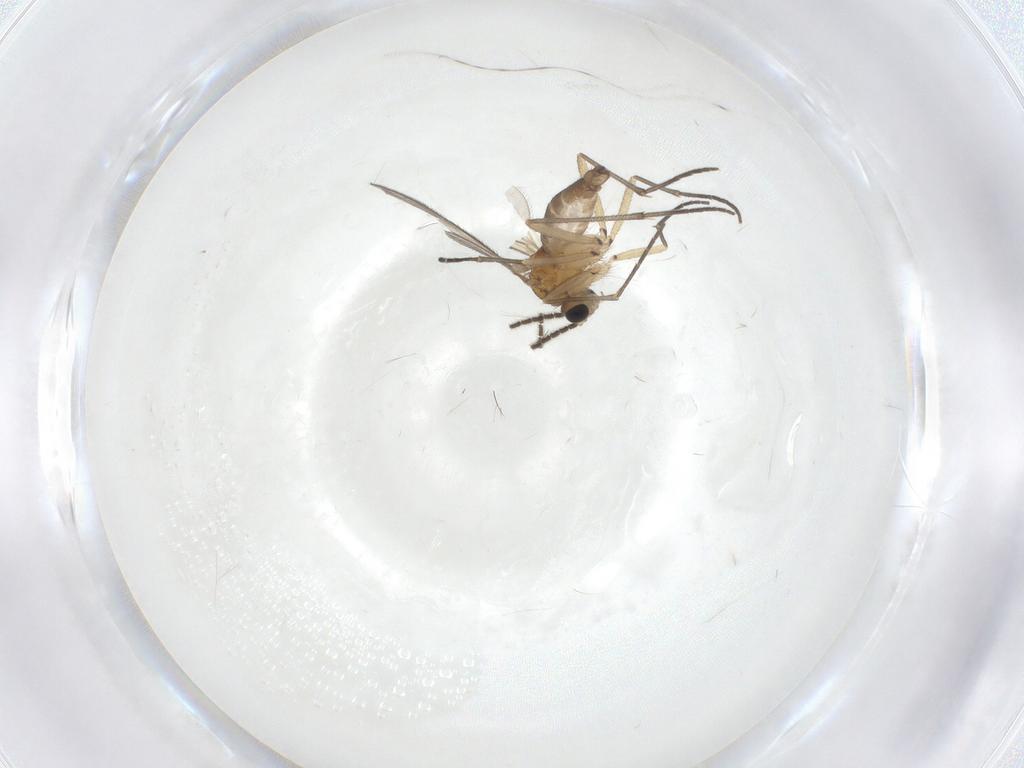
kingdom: Animalia
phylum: Arthropoda
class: Insecta
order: Diptera
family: Sciaridae
